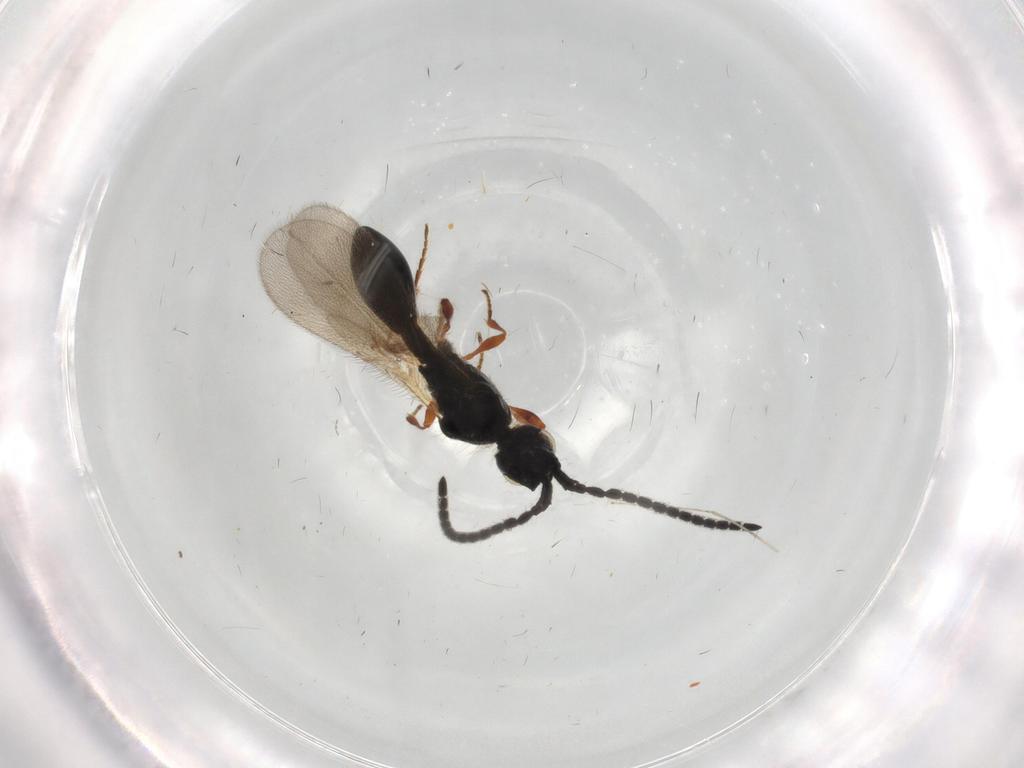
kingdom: Animalia
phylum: Arthropoda
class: Insecta
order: Hymenoptera
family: Diapriidae
